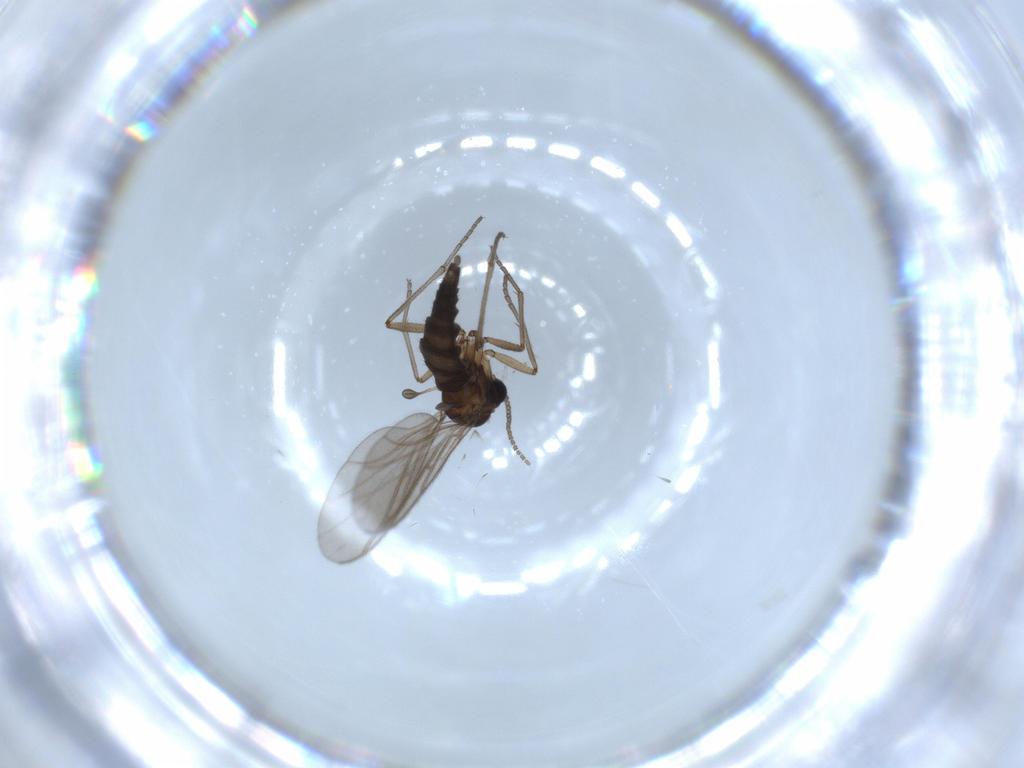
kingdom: Animalia
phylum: Arthropoda
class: Insecta
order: Diptera
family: Sciaridae
